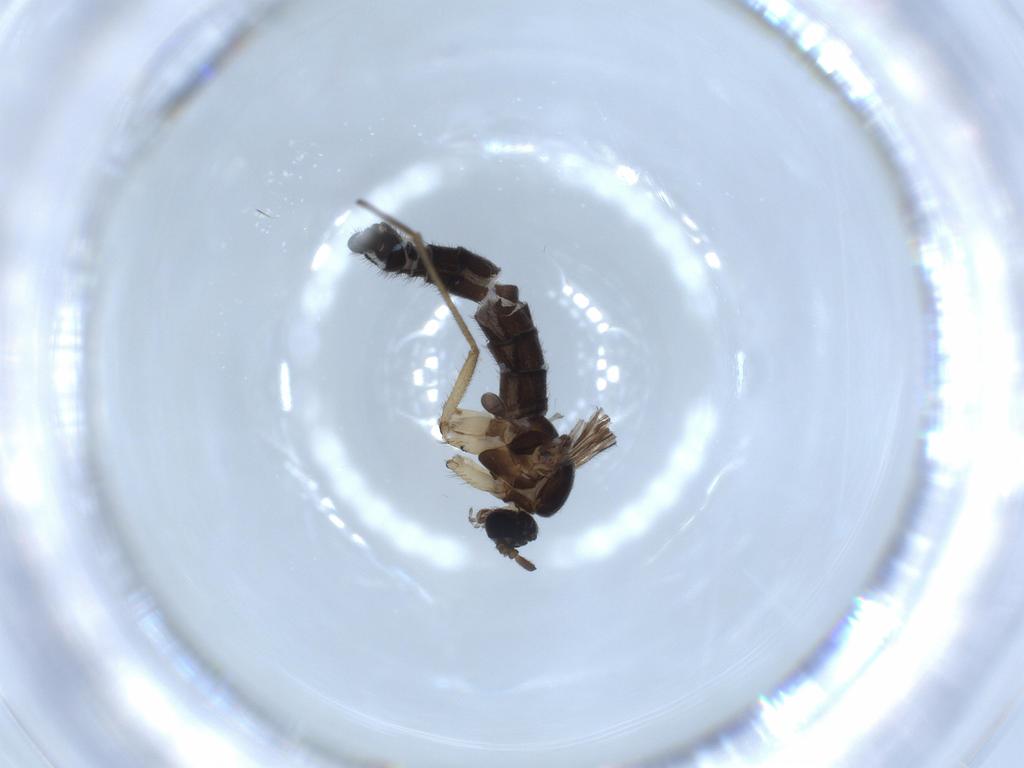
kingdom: Animalia
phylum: Arthropoda
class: Insecta
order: Diptera
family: Sciaridae
